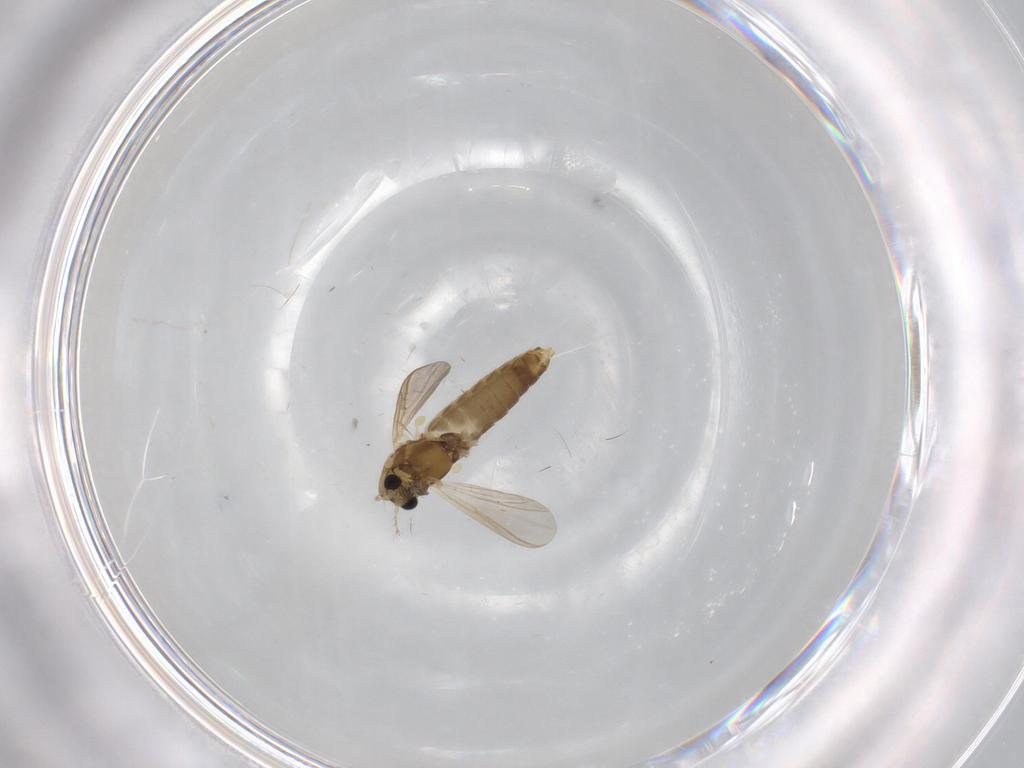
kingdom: Animalia
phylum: Arthropoda
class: Insecta
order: Diptera
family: Chironomidae
